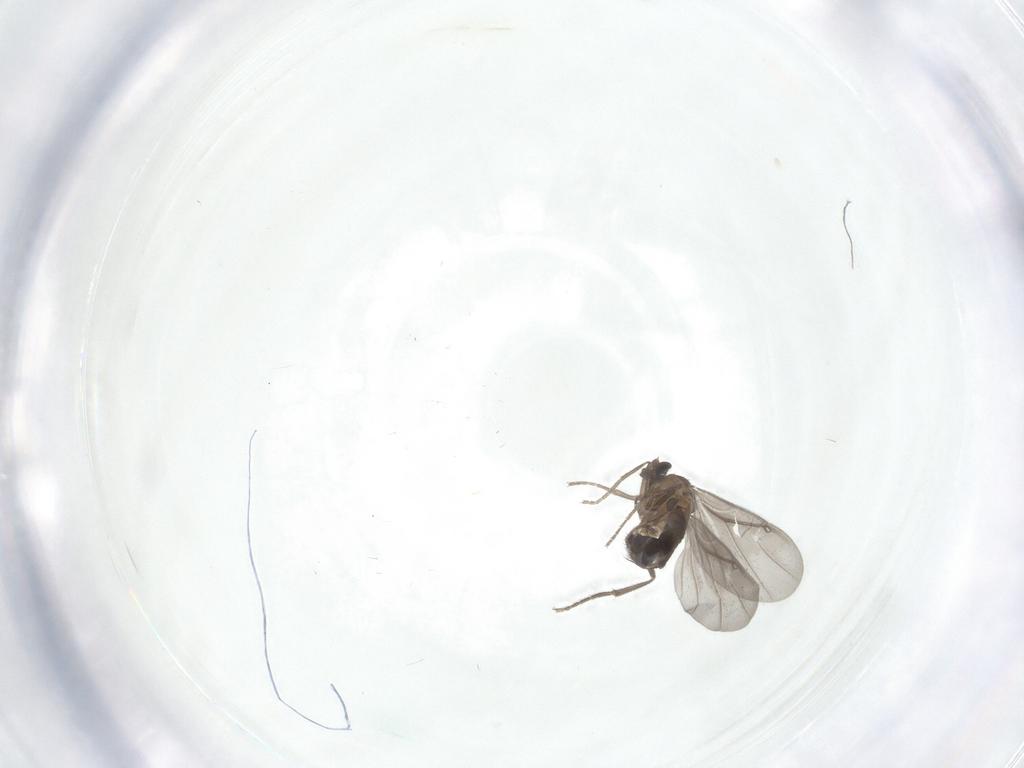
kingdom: Animalia
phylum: Arthropoda
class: Insecta
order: Diptera
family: Phoridae
